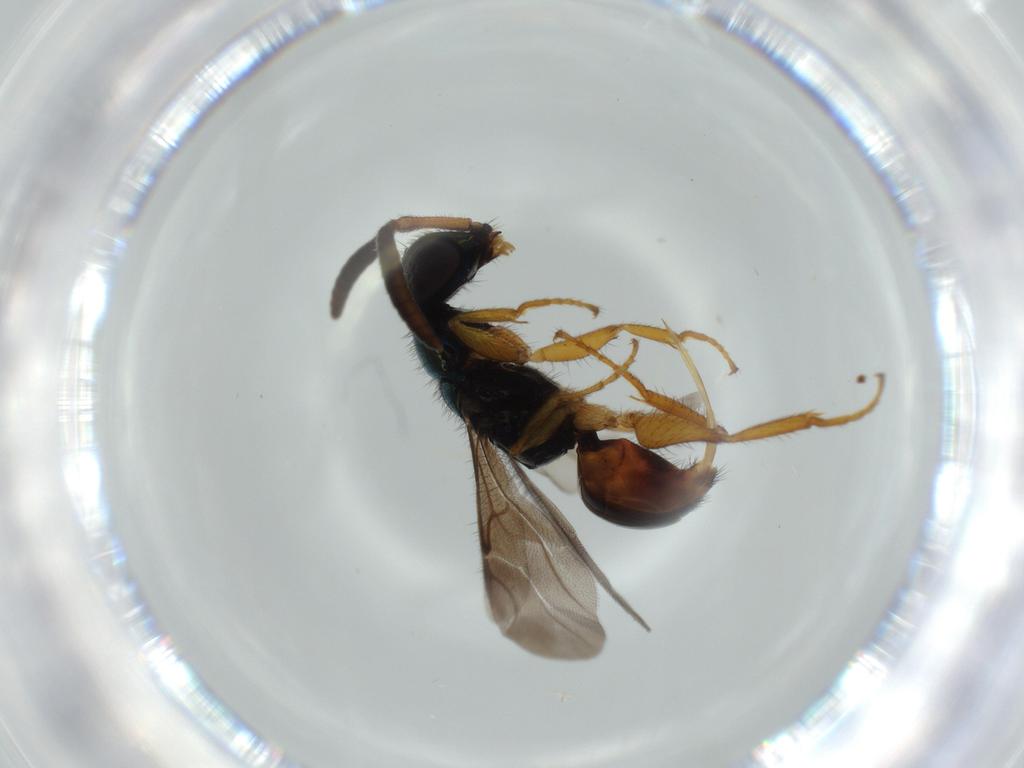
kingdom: Animalia
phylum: Arthropoda
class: Insecta
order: Hymenoptera
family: Chrysididae
